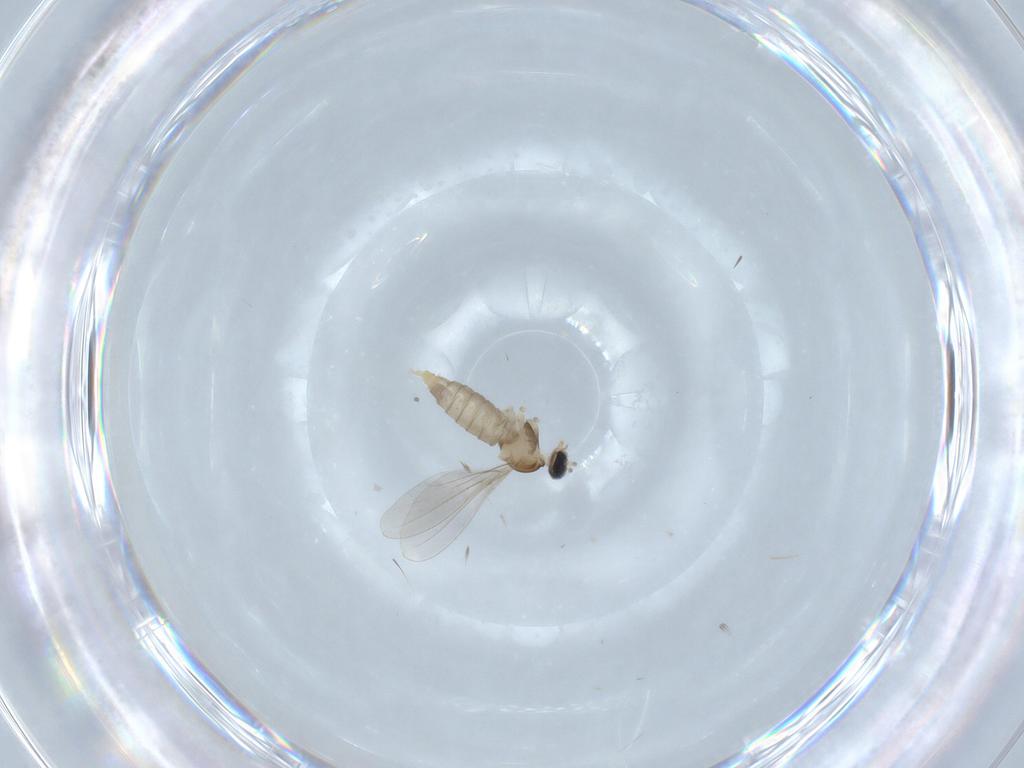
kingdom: Animalia
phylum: Arthropoda
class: Insecta
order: Diptera
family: Cecidomyiidae
